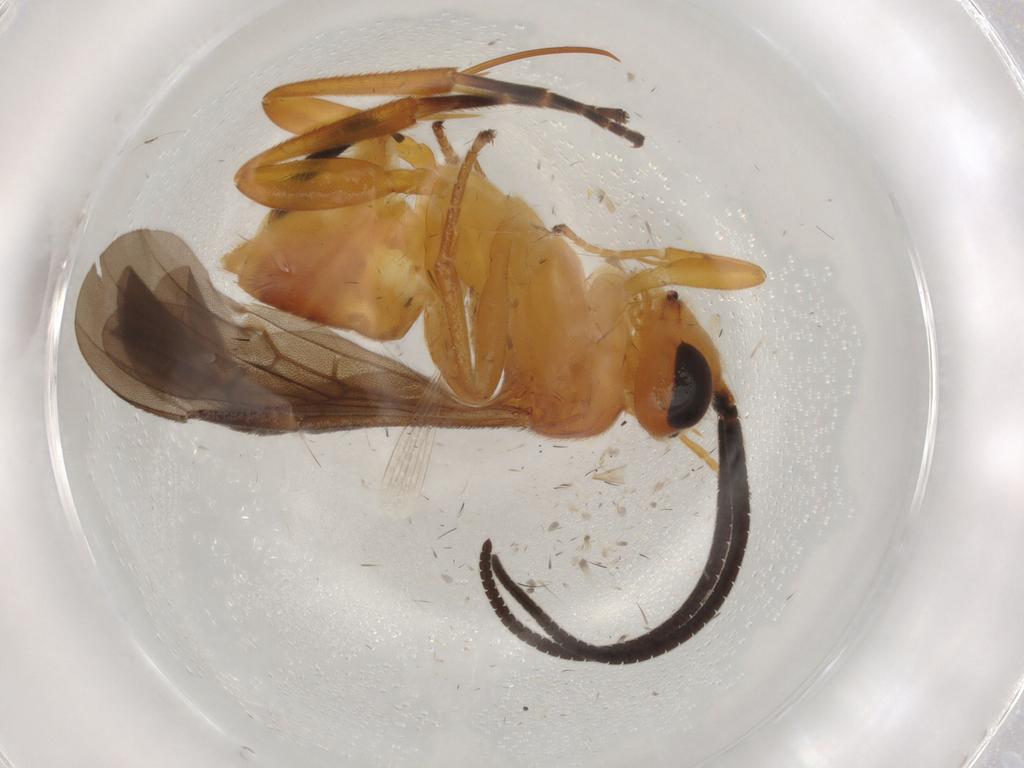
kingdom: Animalia
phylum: Arthropoda
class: Insecta
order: Hymenoptera
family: Braconidae
